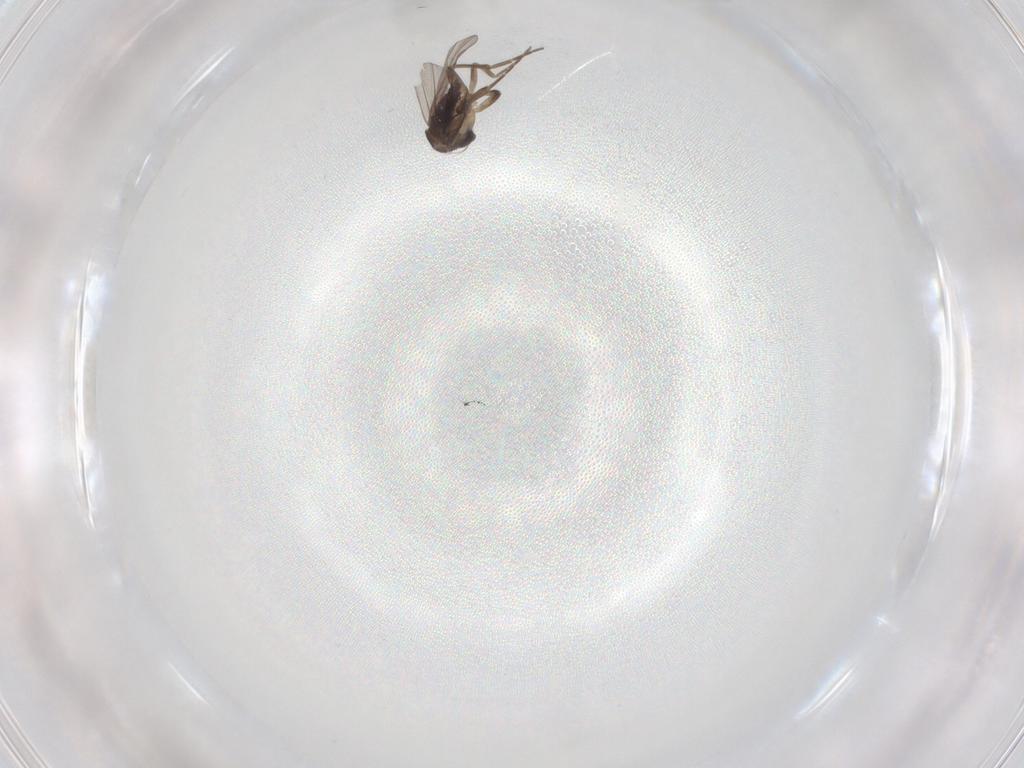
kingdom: Animalia
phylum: Arthropoda
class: Insecta
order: Diptera
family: Phoridae
